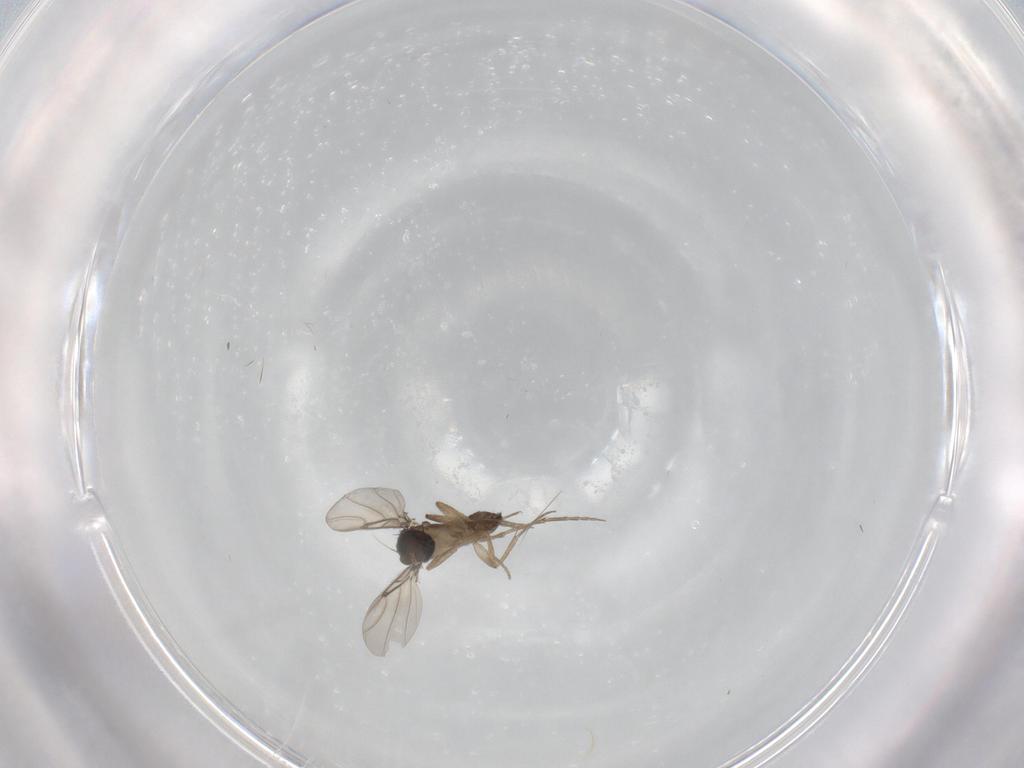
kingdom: Animalia
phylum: Arthropoda
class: Insecta
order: Diptera
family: Phoridae
